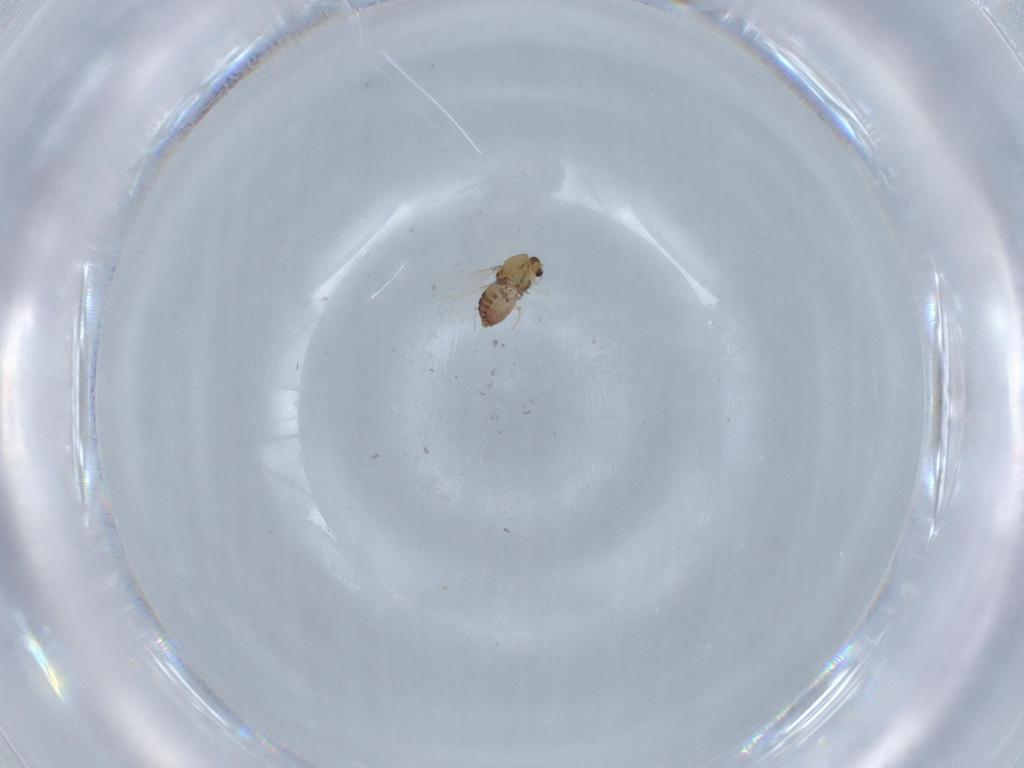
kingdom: Animalia
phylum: Arthropoda
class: Insecta
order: Diptera
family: Chironomidae
